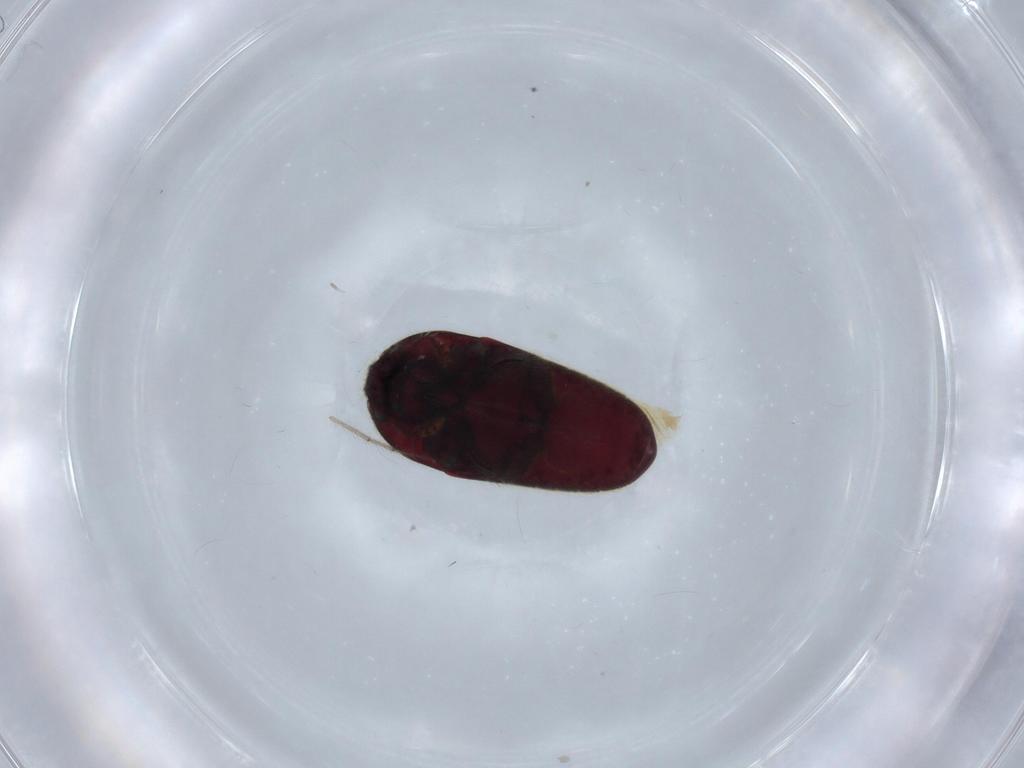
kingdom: Animalia
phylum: Arthropoda
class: Insecta
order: Coleoptera
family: Throscidae
